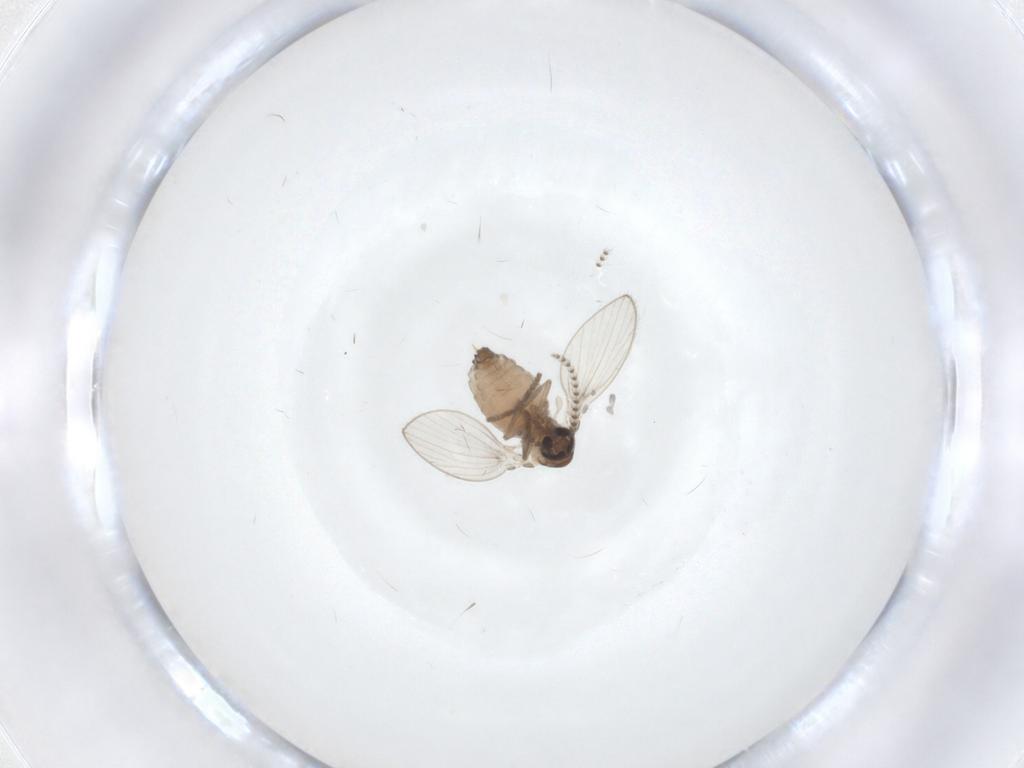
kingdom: Animalia
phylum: Arthropoda
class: Insecta
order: Diptera
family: Psychodidae
